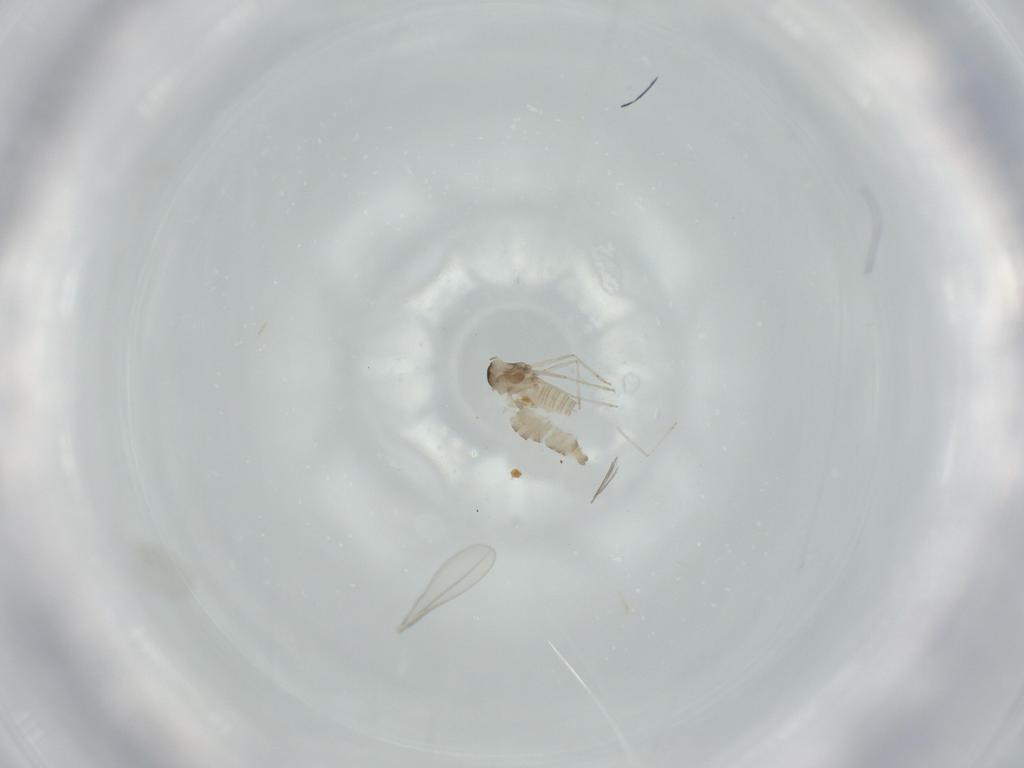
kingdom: Animalia
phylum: Arthropoda
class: Insecta
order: Diptera
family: Cecidomyiidae
